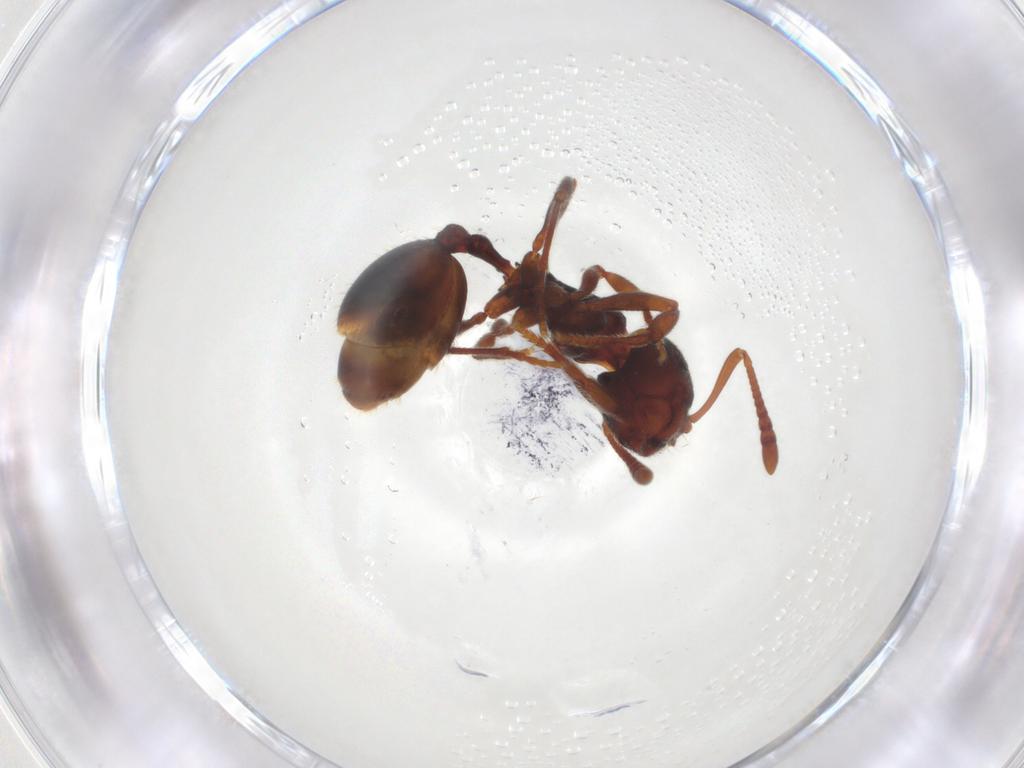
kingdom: Animalia
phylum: Arthropoda
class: Insecta
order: Hymenoptera
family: Formicidae
